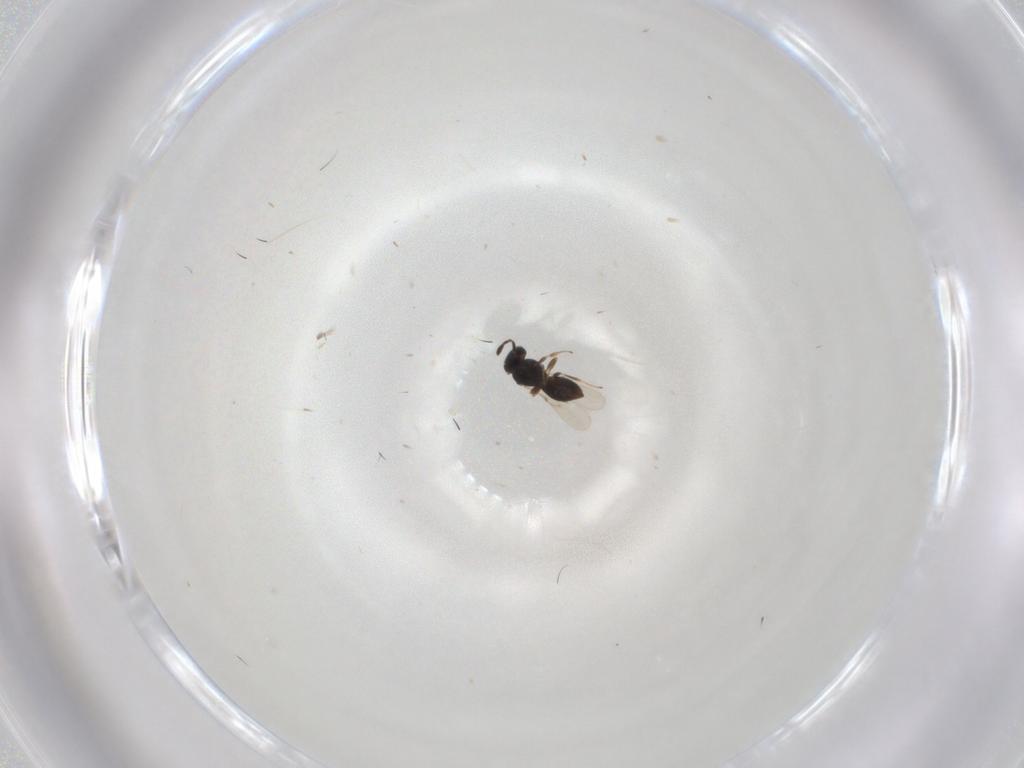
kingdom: Animalia
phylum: Arthropoda
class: Insecta
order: Hymenoptera
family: Scelionidae
